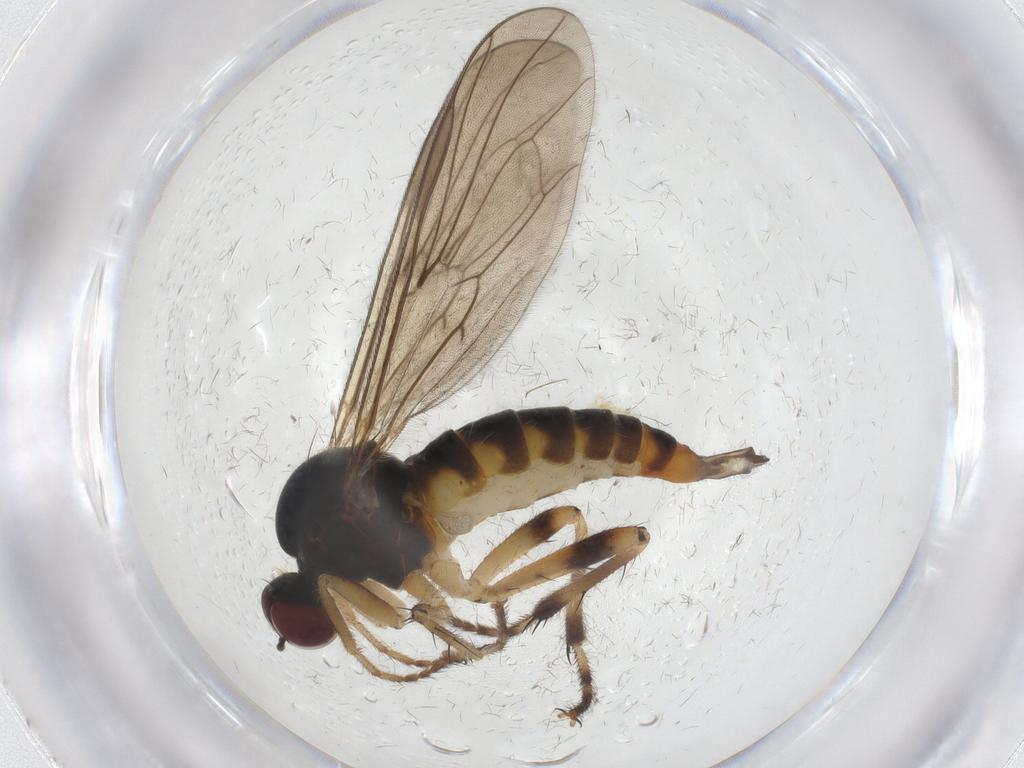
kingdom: Animalia
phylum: Arthropoda
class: Insecta
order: Diptera
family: Hybotidae
